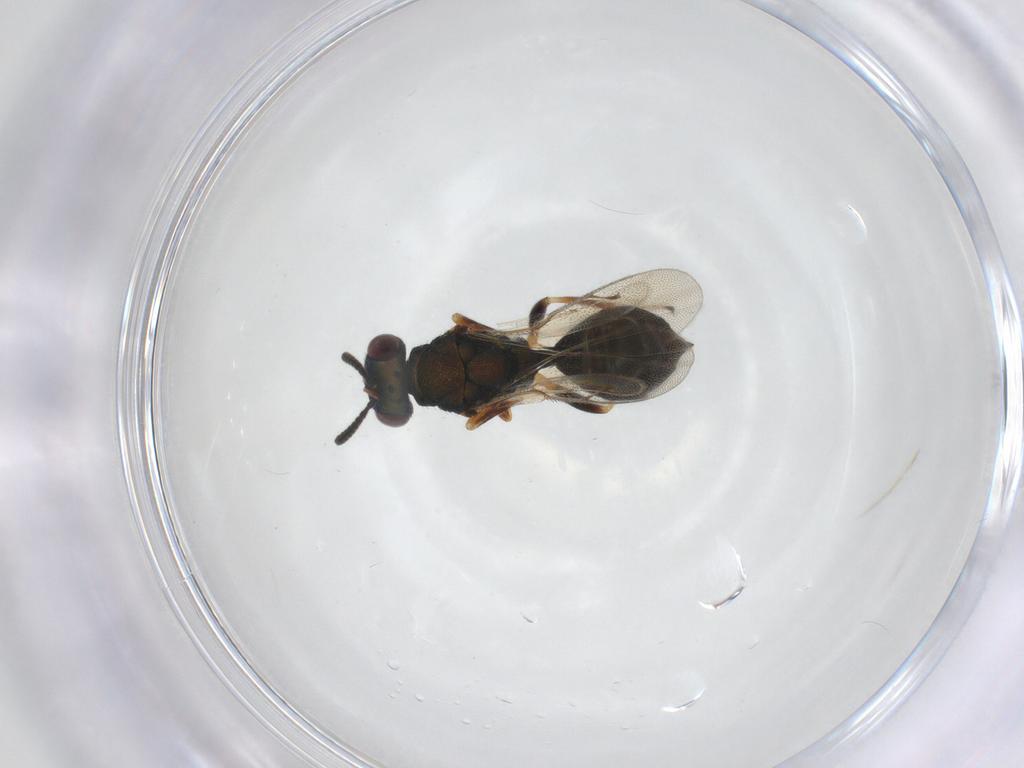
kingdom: Animalia
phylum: Arthropoda
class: Insecta
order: Hymenoptera
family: Pteromalidae
